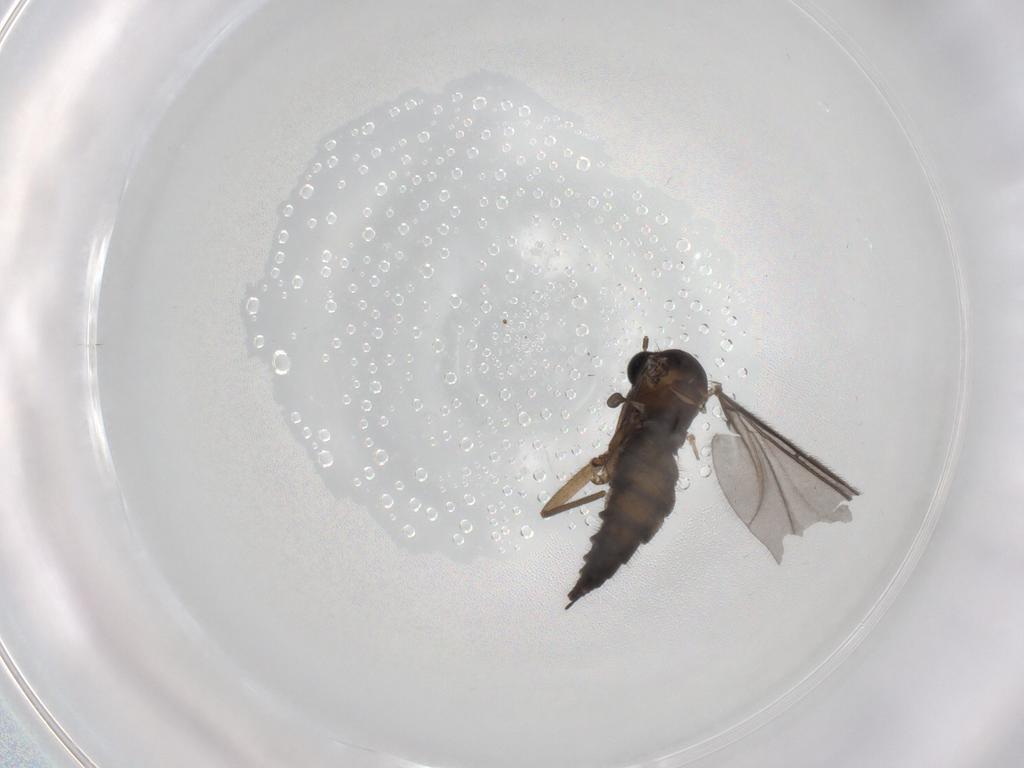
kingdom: Animalia
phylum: Arthropoda
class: Insecta
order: Diptera
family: Sciaridae
